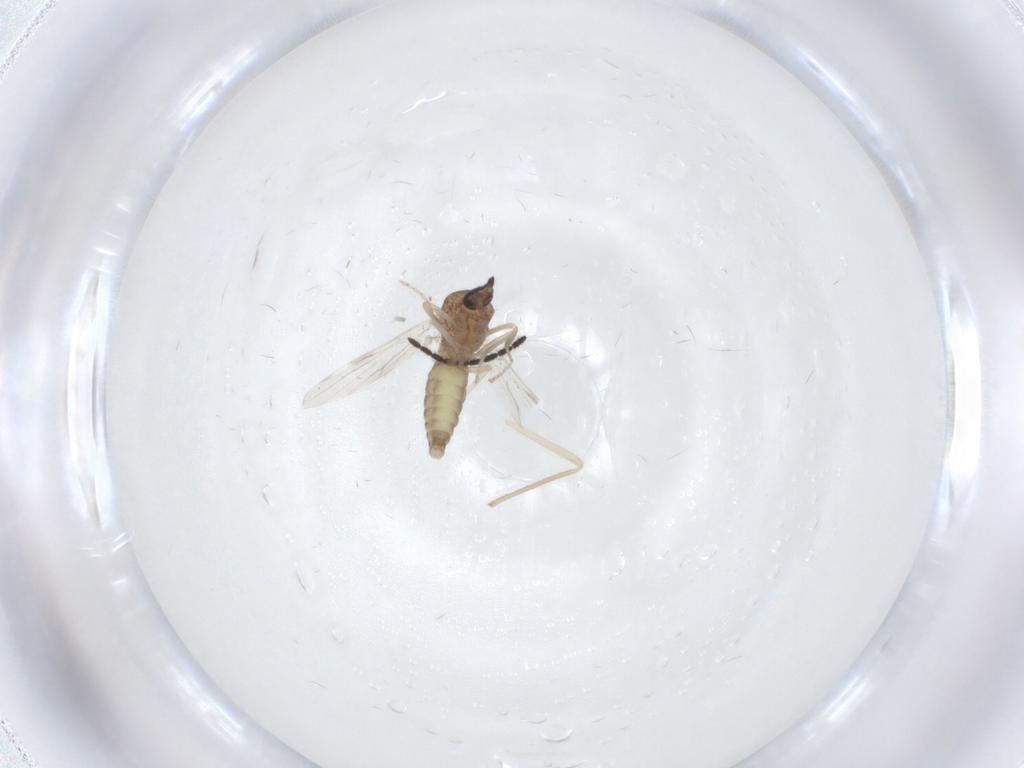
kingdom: Animalia
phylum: Arthropoda
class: Insecta
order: Diptera
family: Ceratopogonidae
